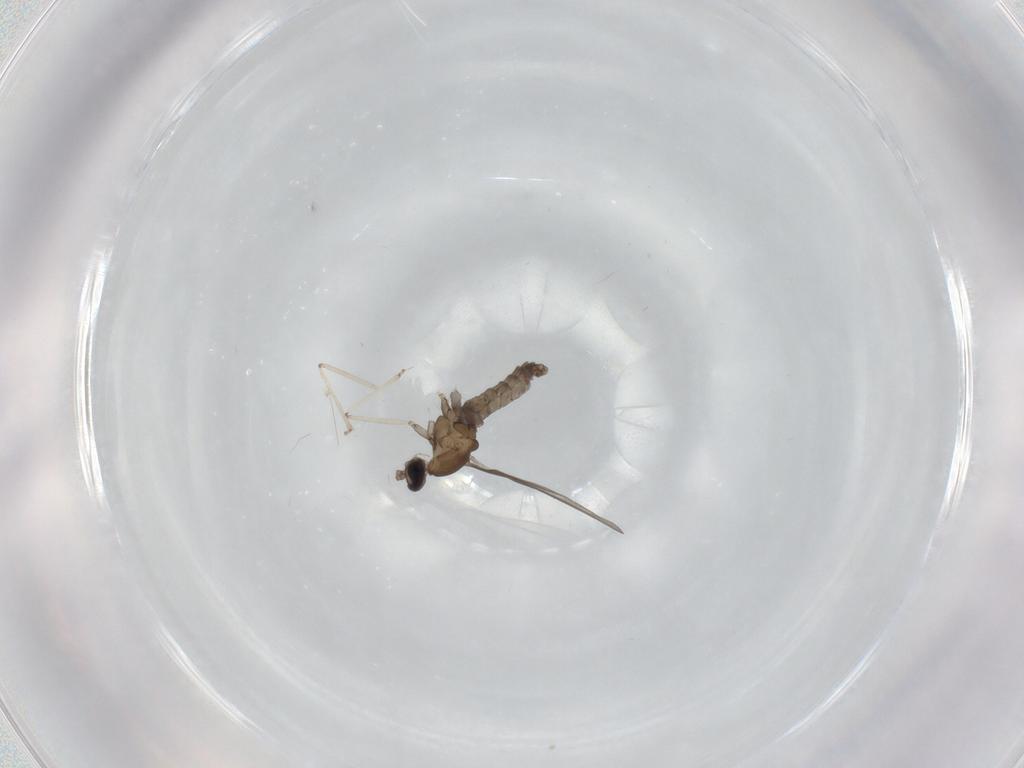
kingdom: Animalia
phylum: Arthropoda
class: Insecta
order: Diptera
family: Cecidomyiidae
